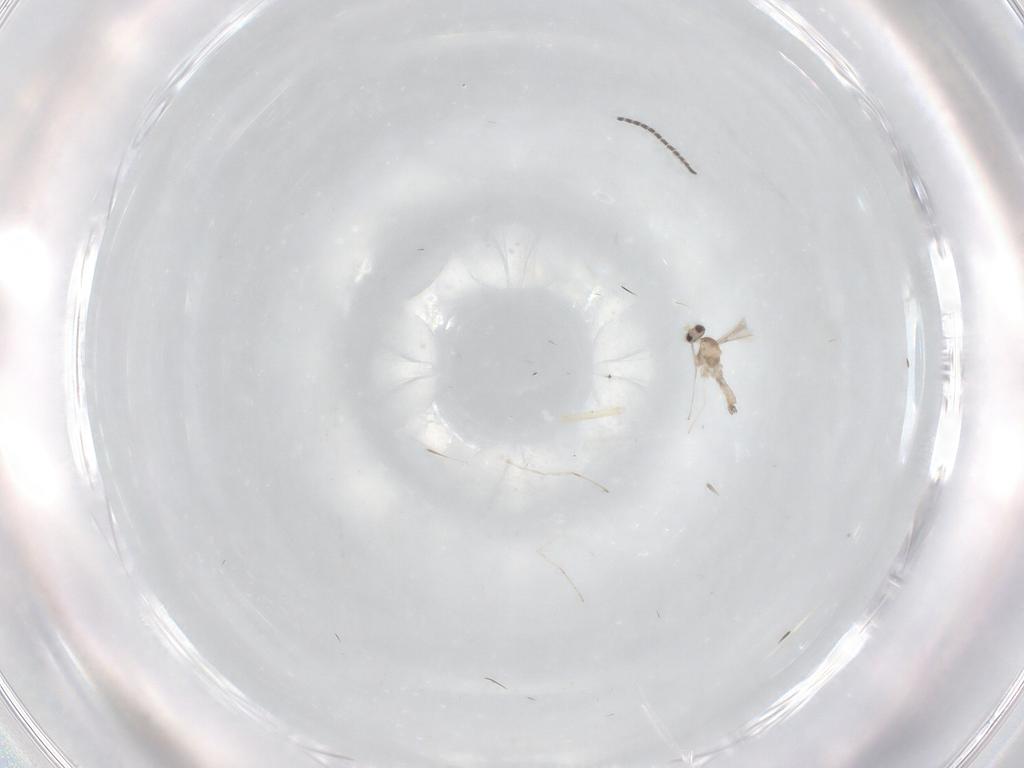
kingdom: Animalia
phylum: Arthropoda
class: Insecta
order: Diptera
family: Cecidomyiidae
